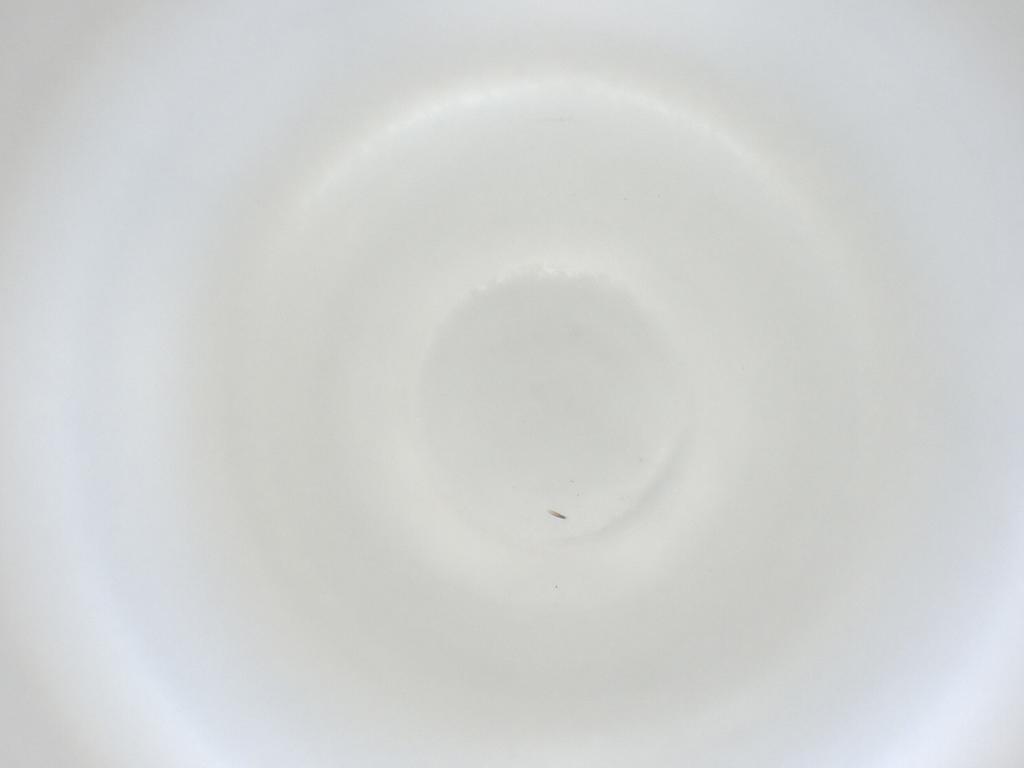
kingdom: Animalia
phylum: Arthropoda
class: Insecta
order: Diptera
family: Cecidomyiidae
